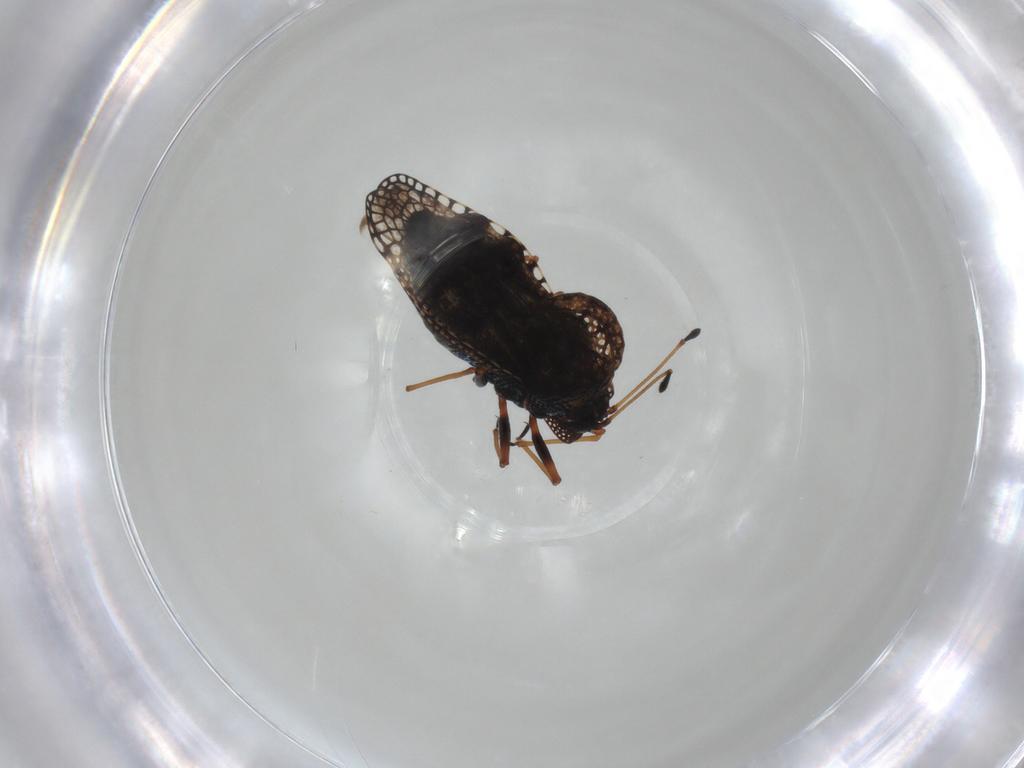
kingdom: Animalia
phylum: Arthropoda
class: Insecta
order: Hemiptera
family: Tingidae
